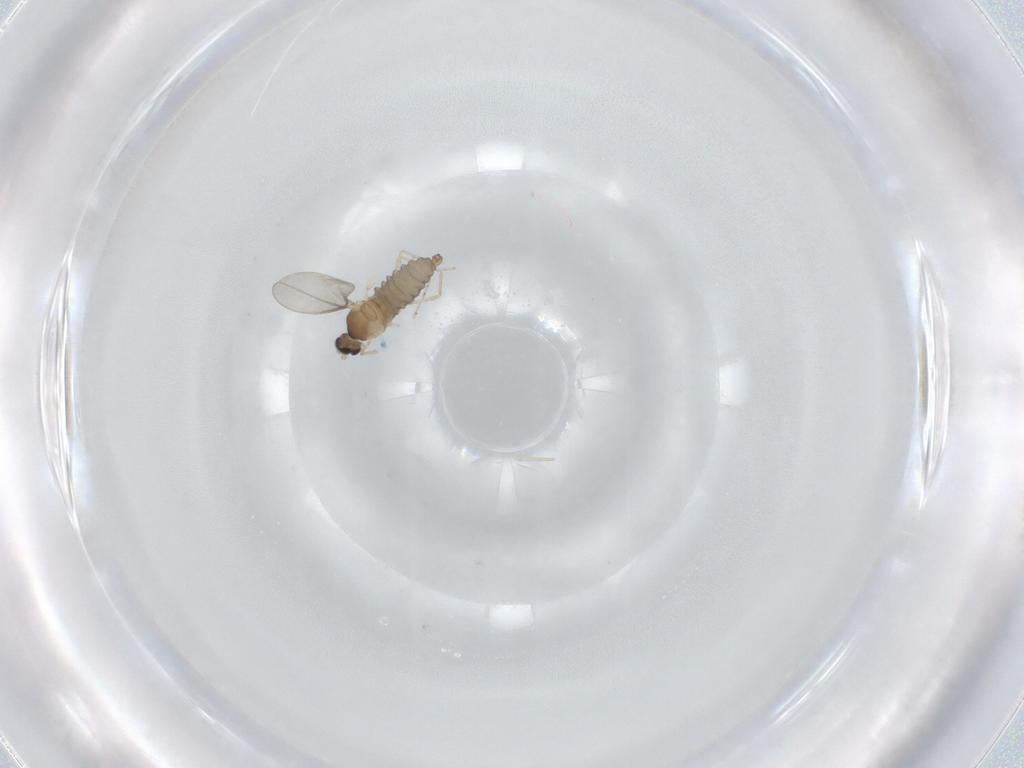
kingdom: Animalia
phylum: Arthropoda
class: Insecta
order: Diptera
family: Cecidomyiidae
